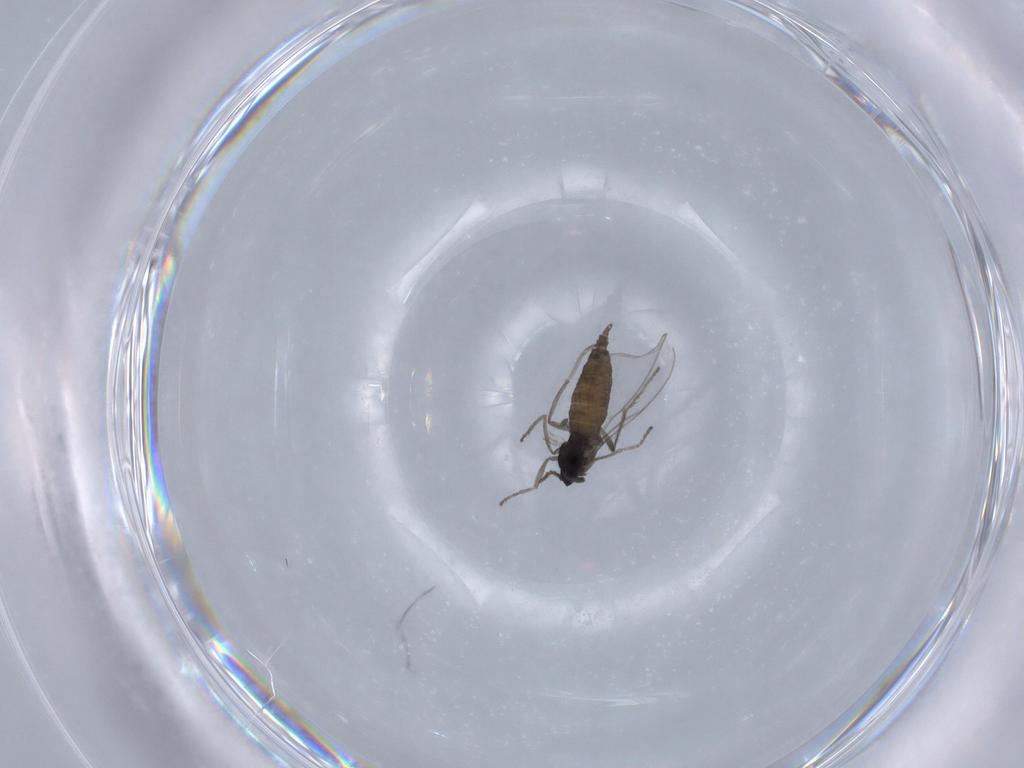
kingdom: Animalia
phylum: Arthropoda
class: Insecta
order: Diptera
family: Cecidomyiidae
